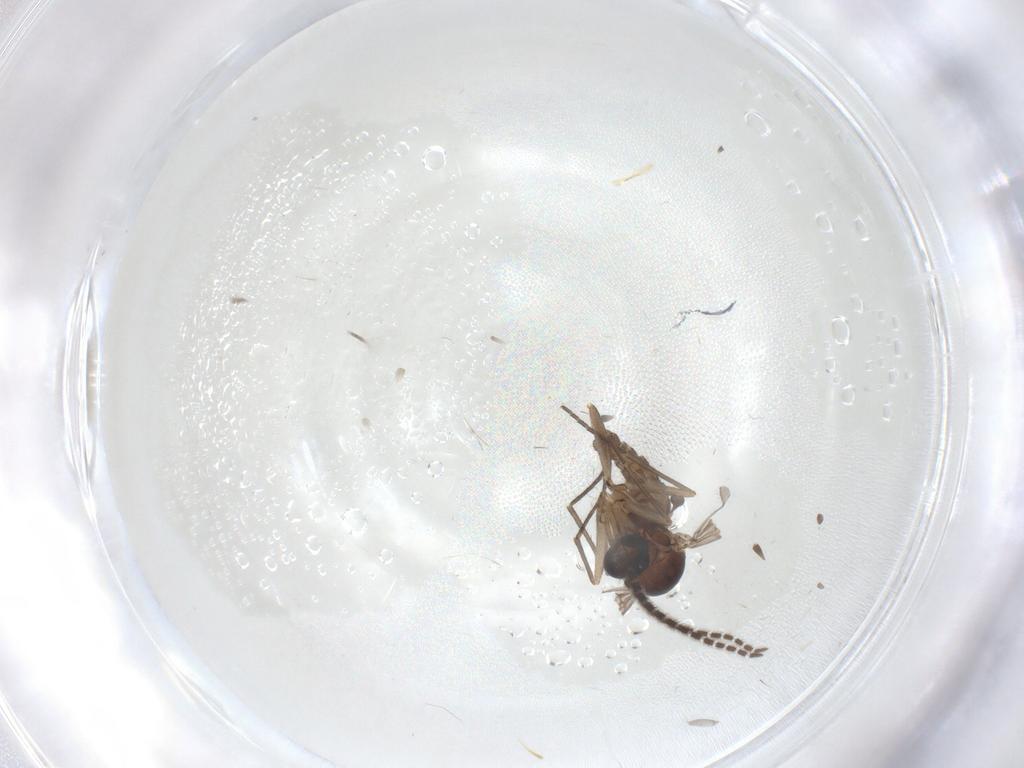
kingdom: Animalia
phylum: Arthropoda
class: Insecta
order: Diptera
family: Sciaridae
